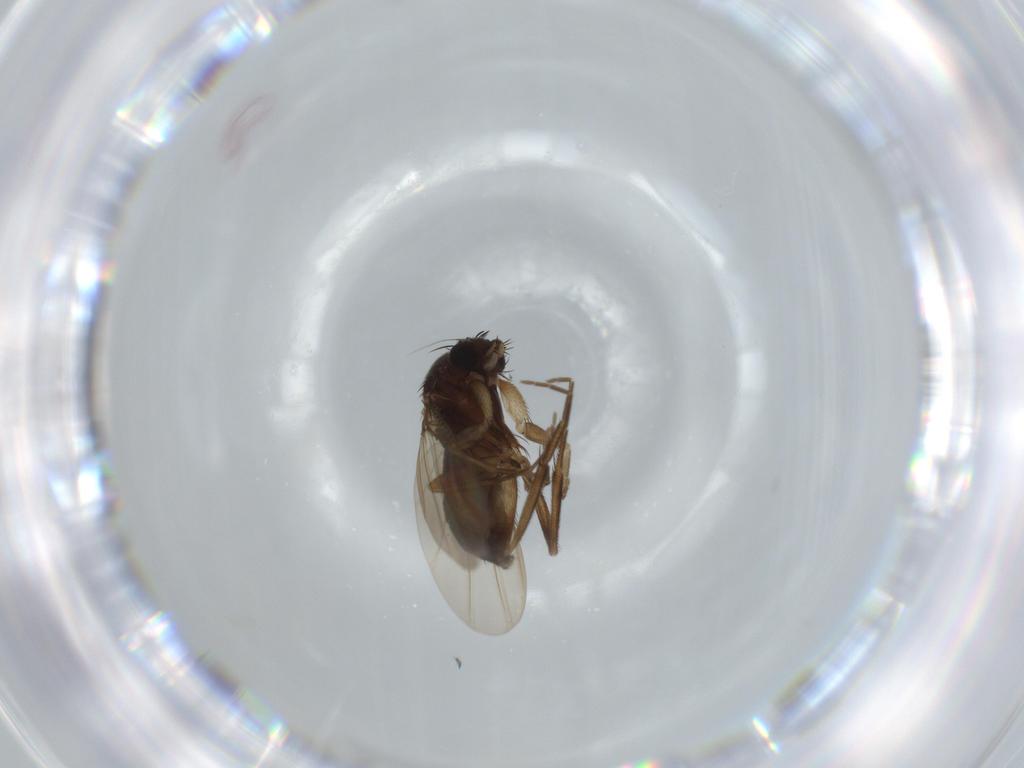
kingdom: Animalia
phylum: Arthropoda
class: Insecta
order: Diptera
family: Phoridae
